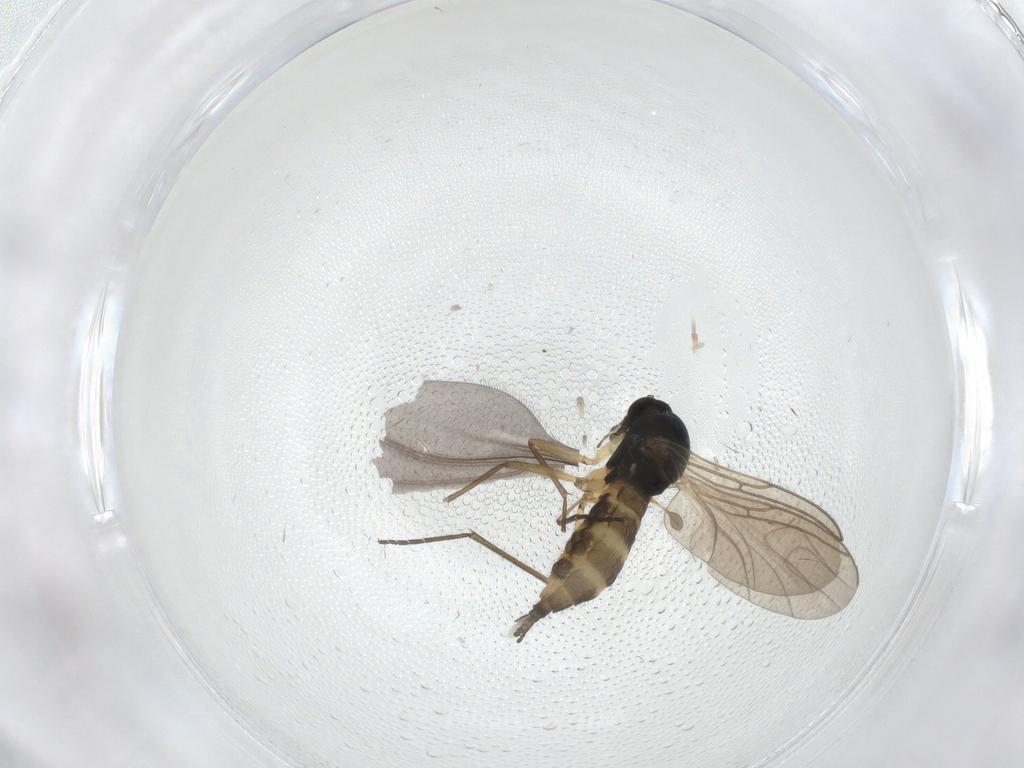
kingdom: Animalia
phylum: Arthropoda
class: Insecta
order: Diptera
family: Sciaridae
